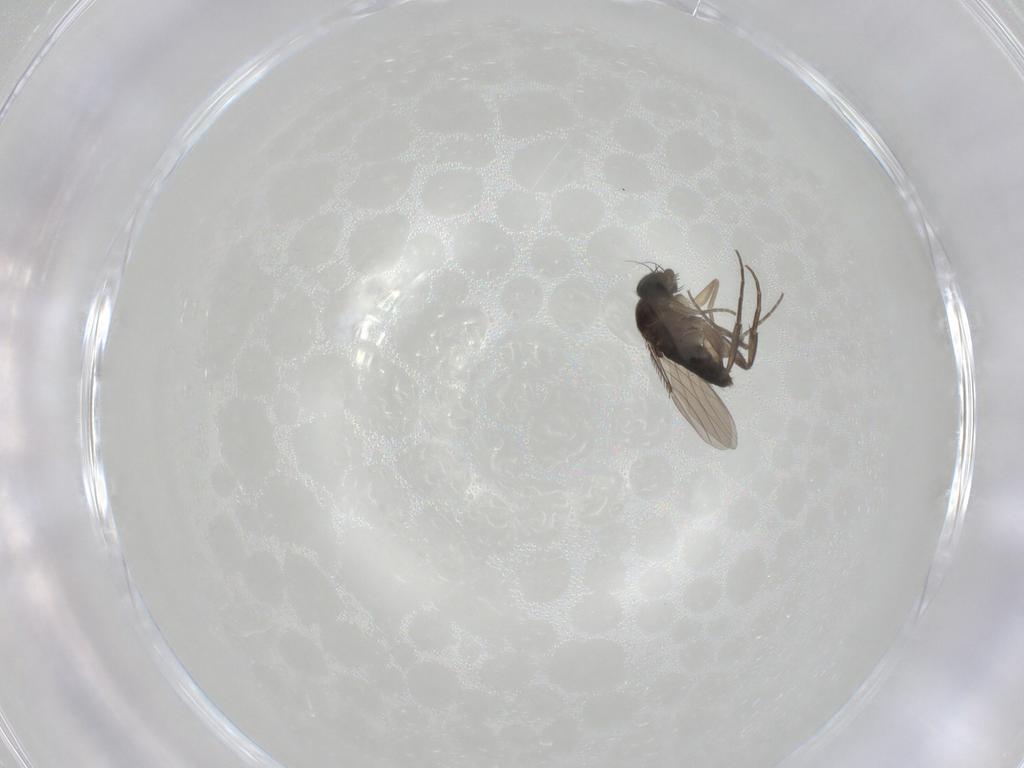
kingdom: Animalia
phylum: Arthropoda
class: Insecta
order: Diptera
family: Phoridae
